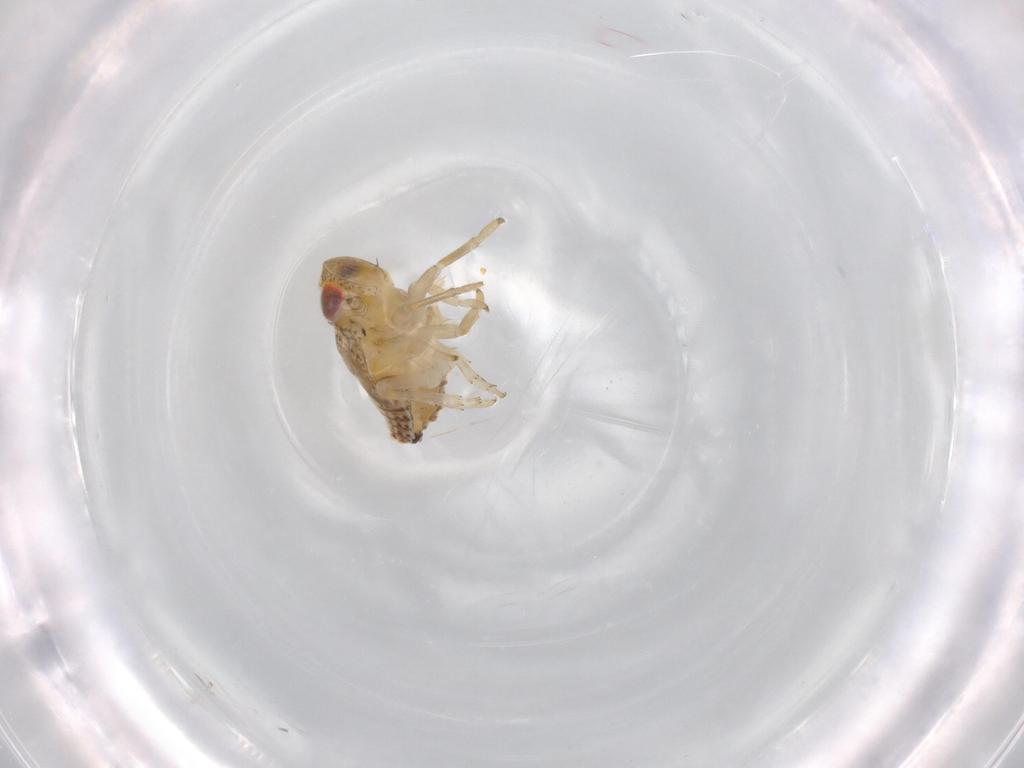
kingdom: Animalia
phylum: Arthropoda
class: Insecta
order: Hemiptera
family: Issidae
